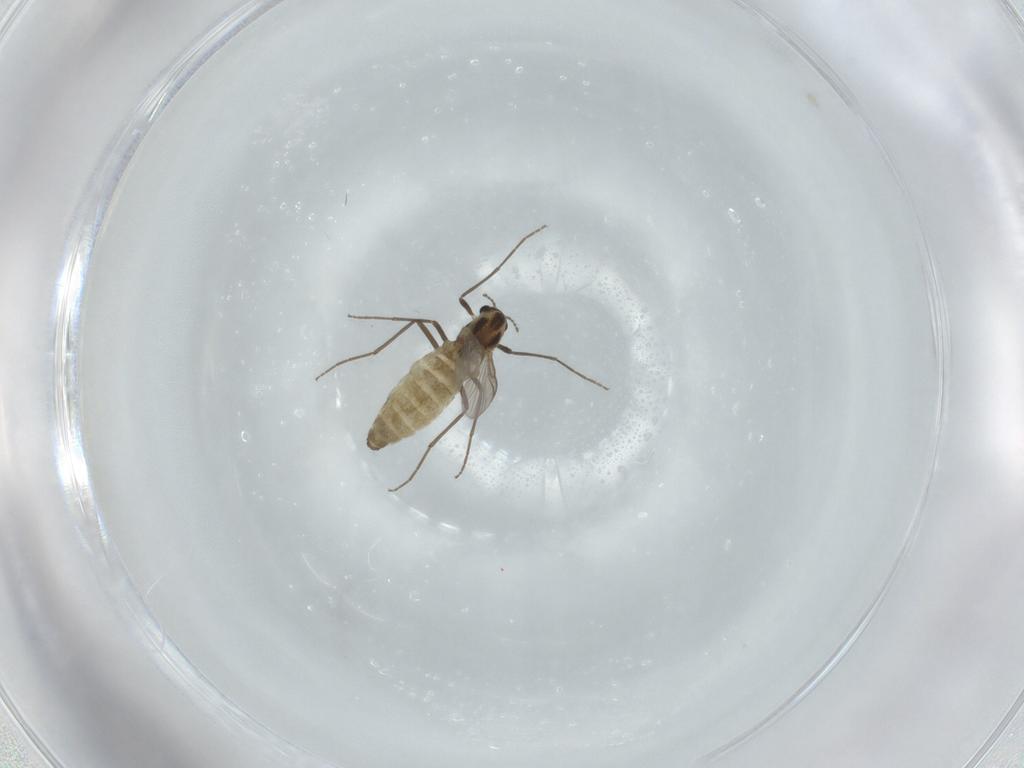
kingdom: Animalia
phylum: Arthropoda
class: Insecta
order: Diptera
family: Chironomidae
